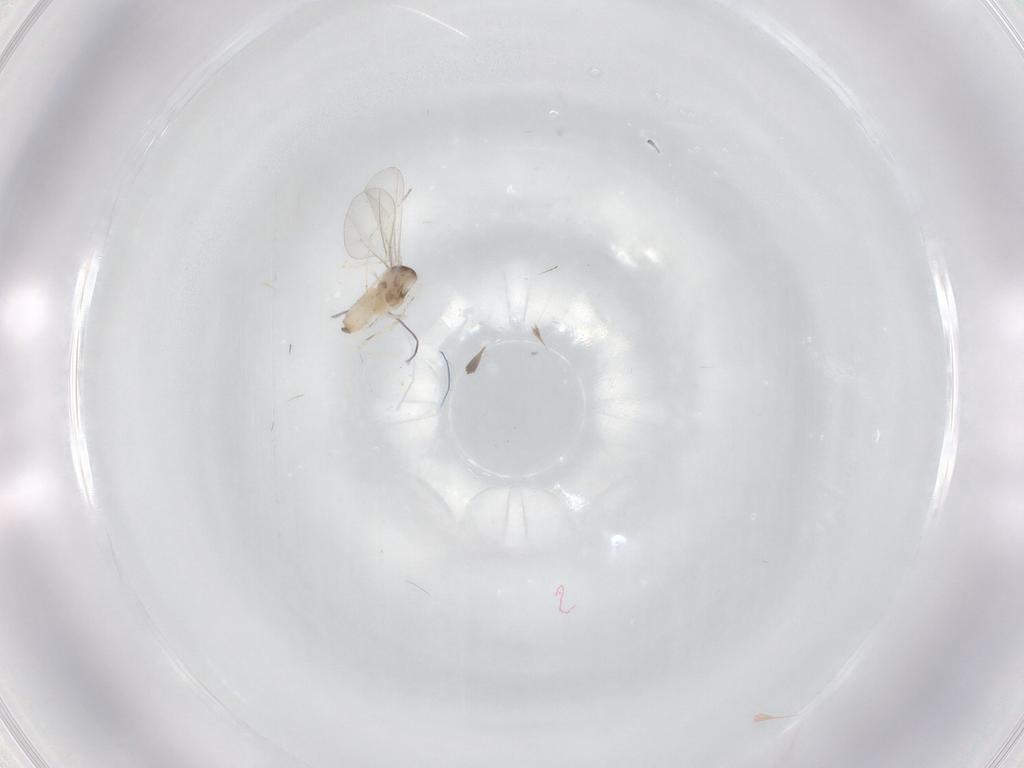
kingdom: Animalia
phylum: Arthropoda
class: Insecta
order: Diptera
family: Cecidomyiidae
